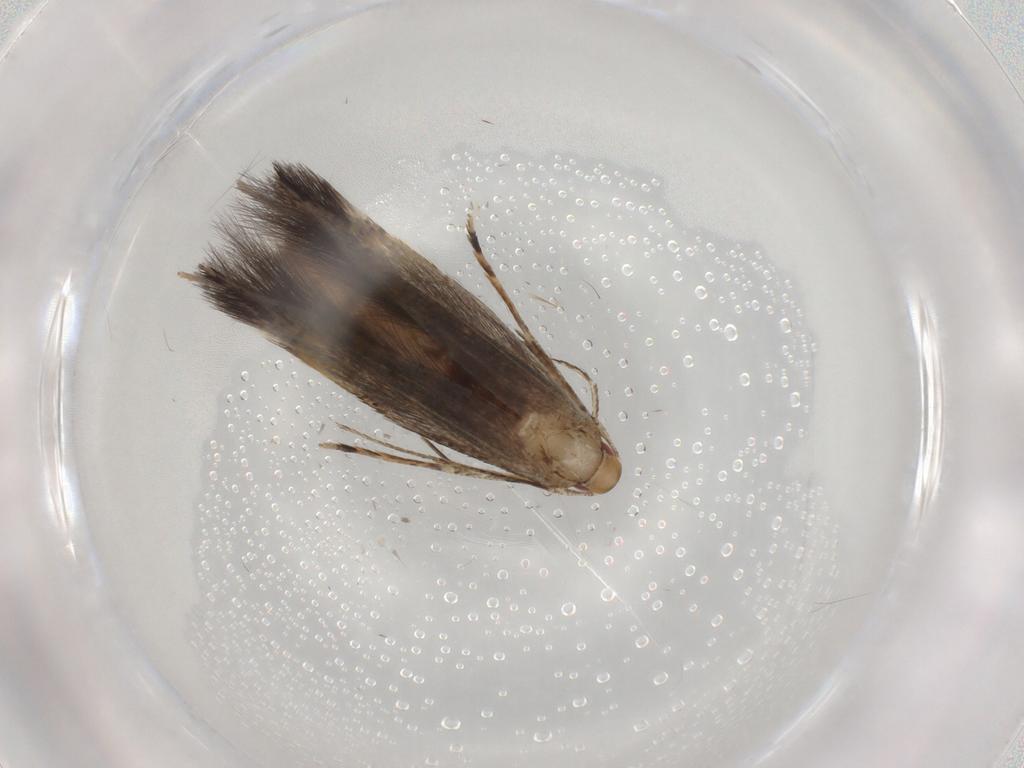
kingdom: Animalia
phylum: Arthropoda
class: Insecta
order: Lepidoptera
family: Cosmopterigidae
